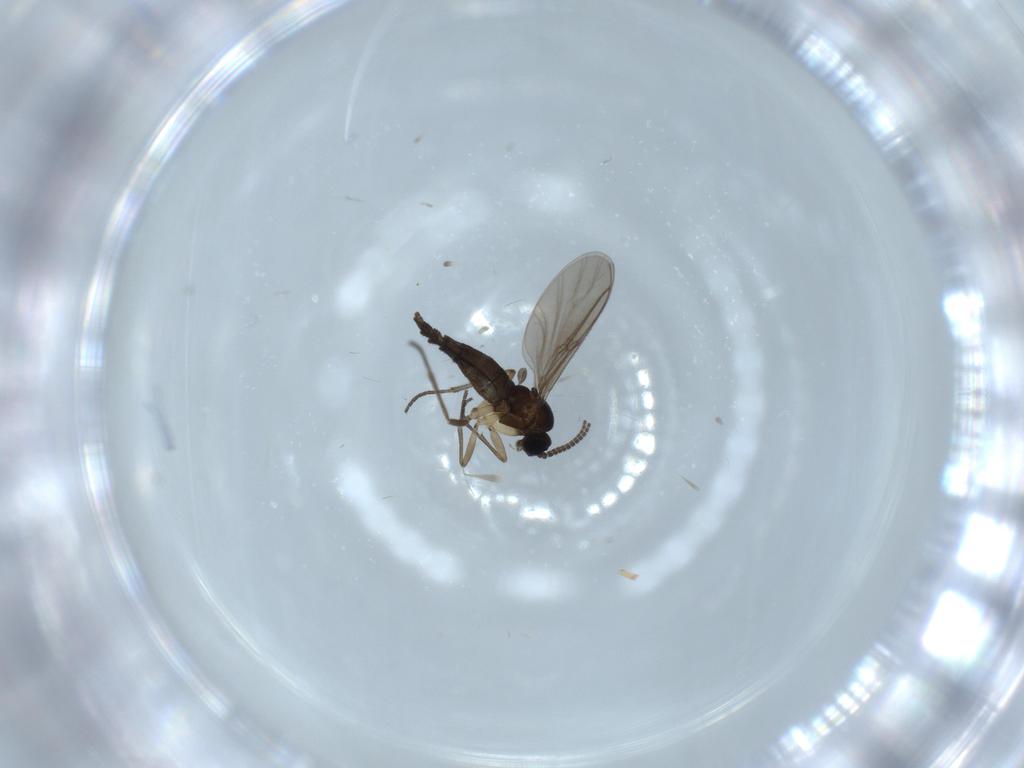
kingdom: Animalia
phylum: Arthropoda
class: Insecta
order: Diptera
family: Sciaridae
